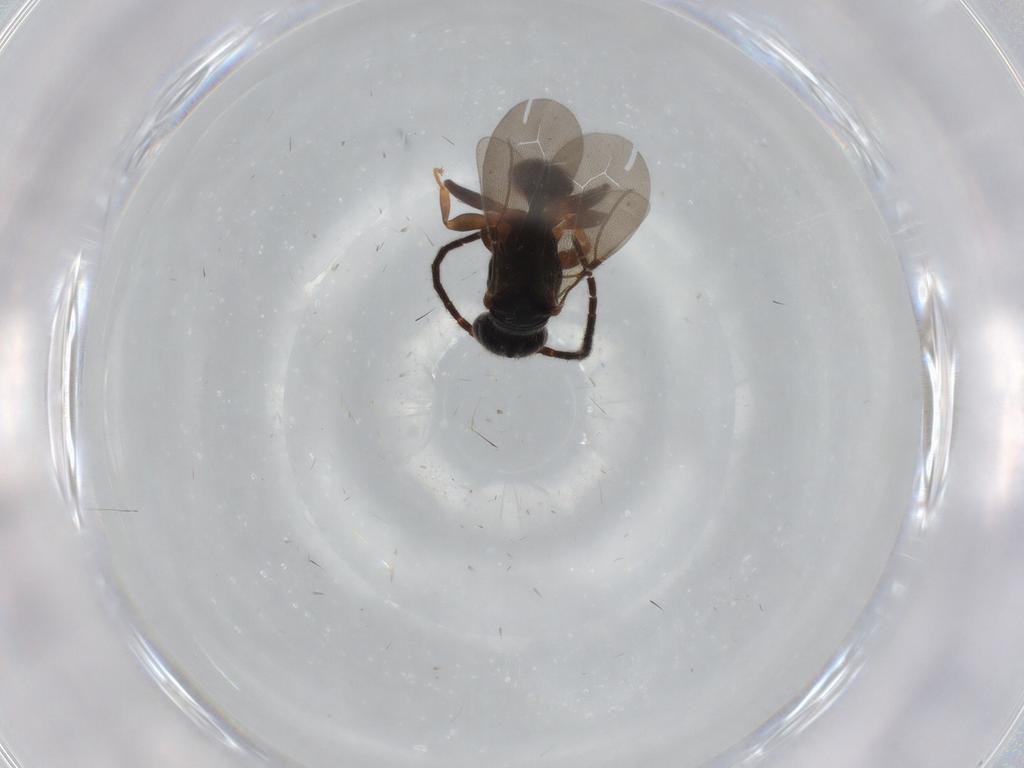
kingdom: Animalia
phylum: Arthropoda
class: Insecta
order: Hymenoptera
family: Bethylidae
